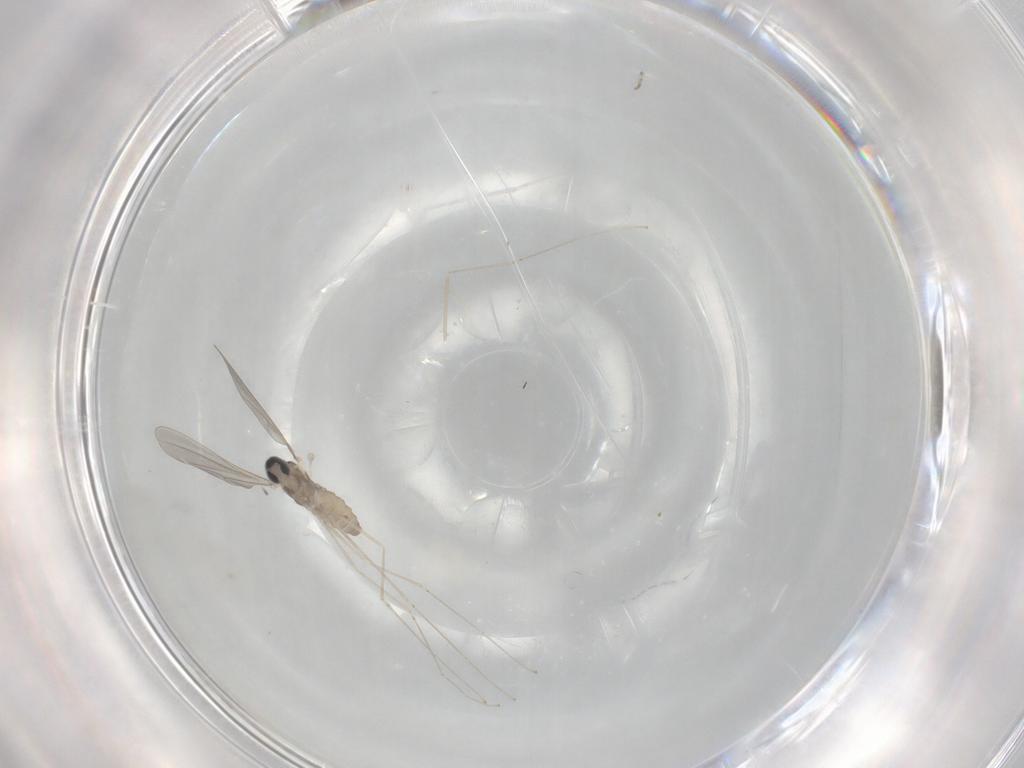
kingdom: Animalia
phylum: Arthropoda
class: Insecta
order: Diptera
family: Cecidomyiidae
